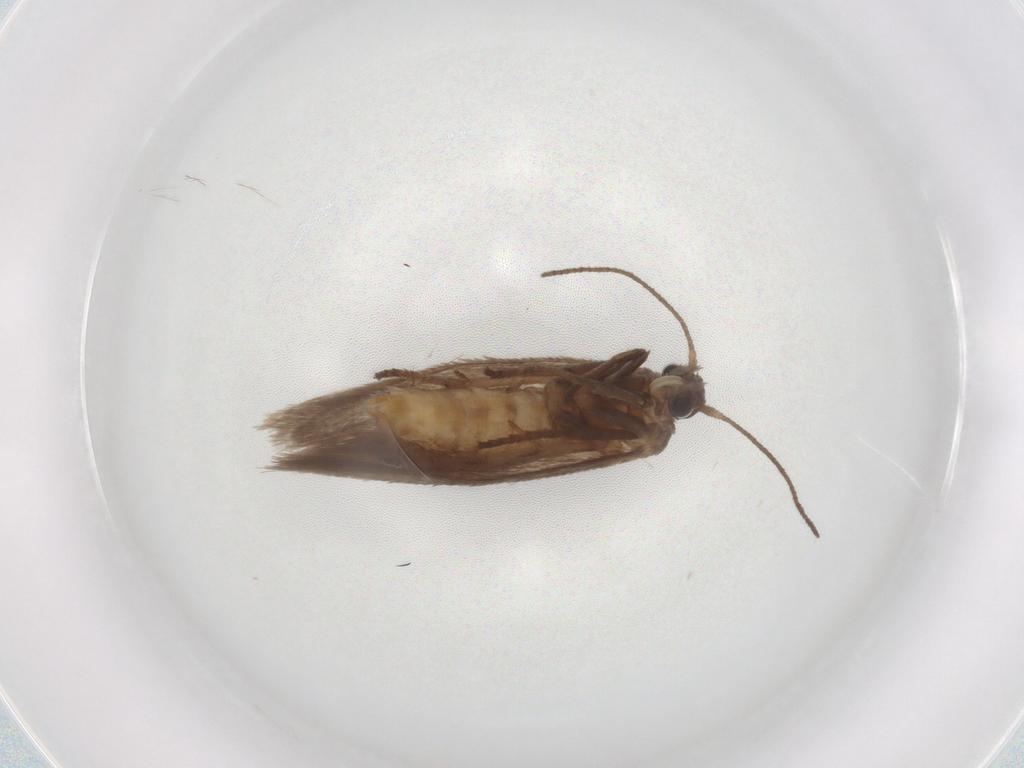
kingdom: Animalia
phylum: Arthropoda
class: Insecta
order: Lepidoptera
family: Limacodidae
